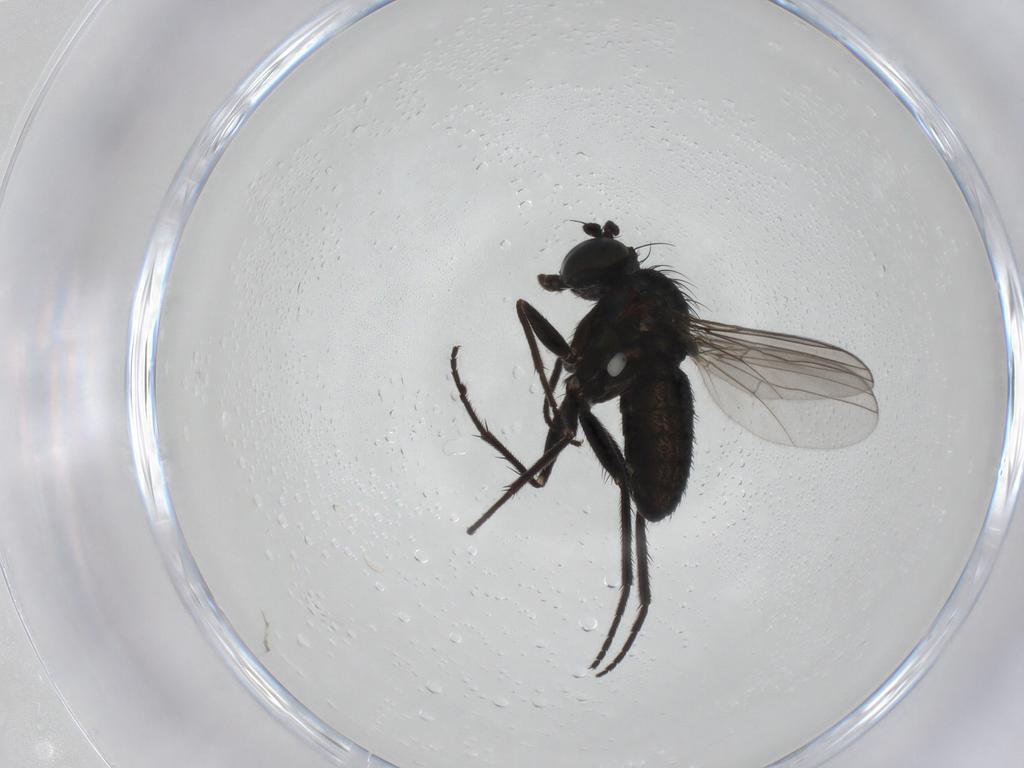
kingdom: Animalia
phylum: Arthropoda
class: Insecta
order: Diptera
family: Dolichopodidae
